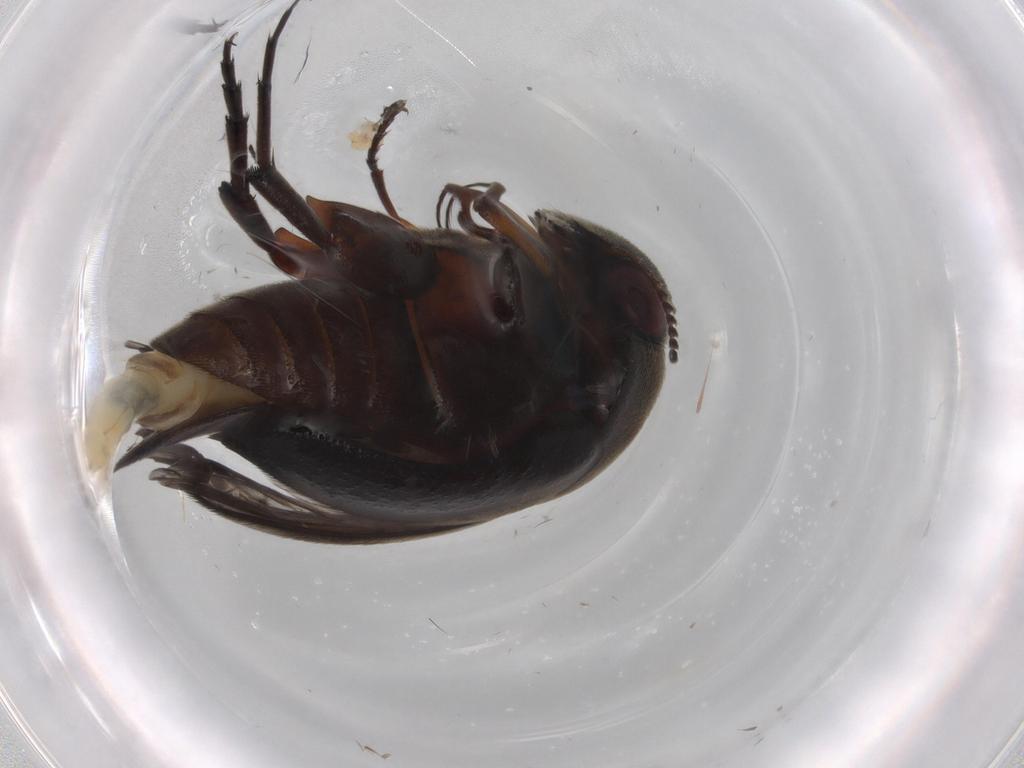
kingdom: Animalia
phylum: Arthropoda
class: Insecta
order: Coleoptera
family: Mordellidae
